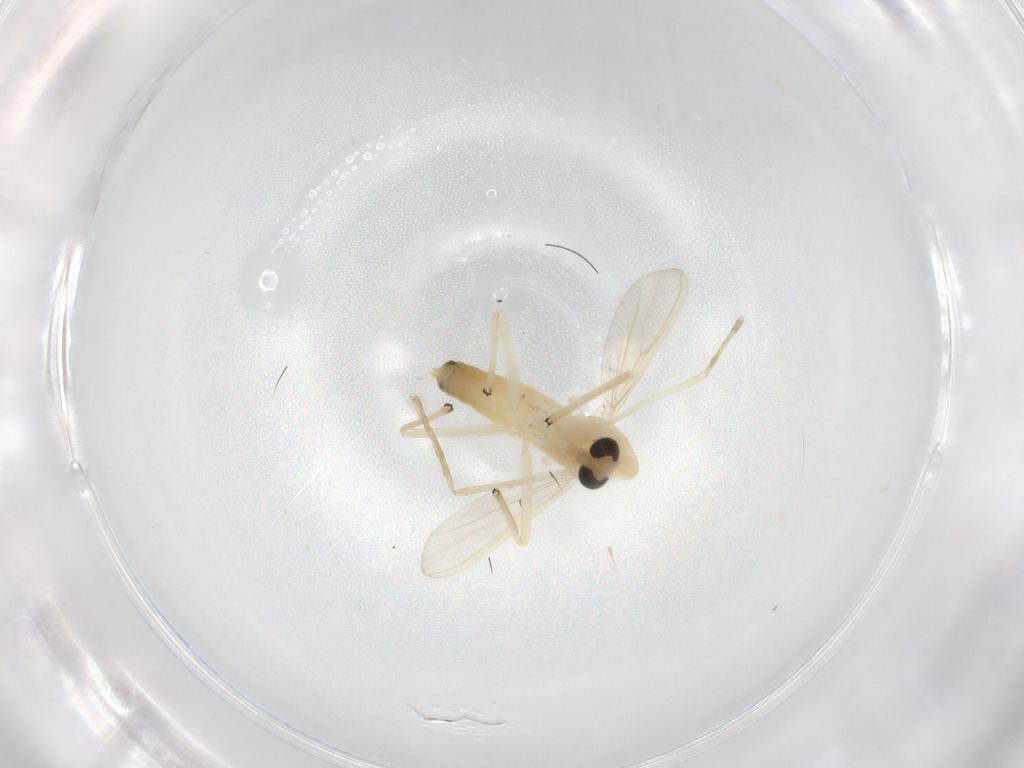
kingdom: Animalia
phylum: Arthropoda
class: Insecta
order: Diptera
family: Chironomidae
